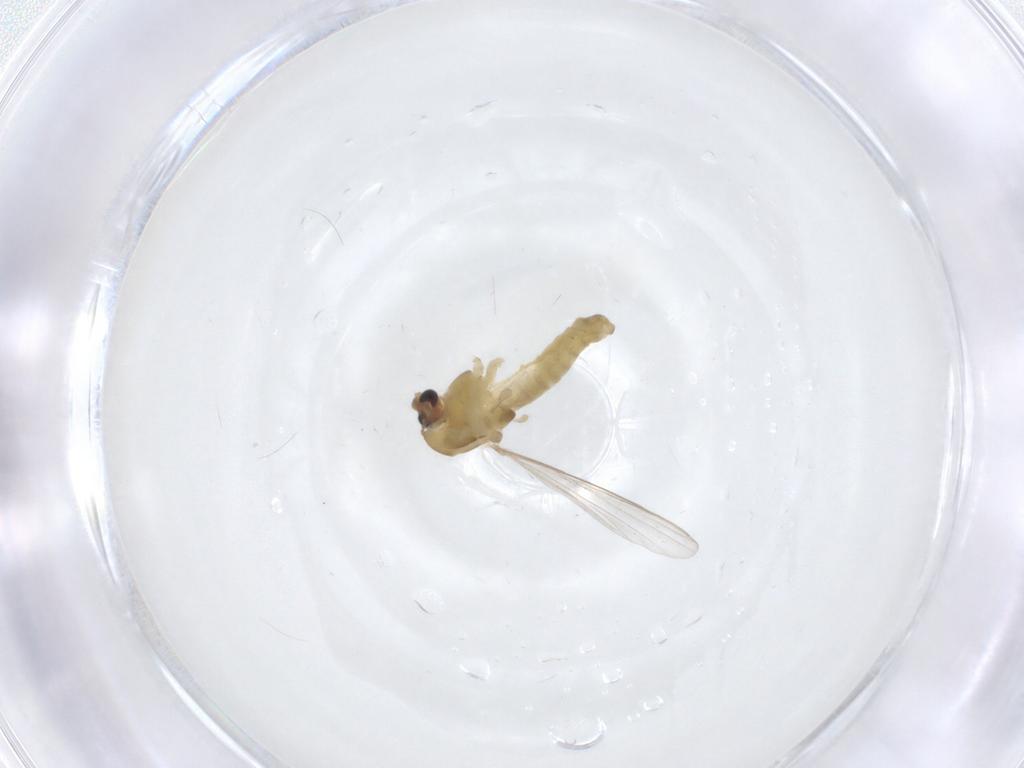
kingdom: Animalia
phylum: Arthropoda
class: Insecta
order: Diptera
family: Chironomidae
